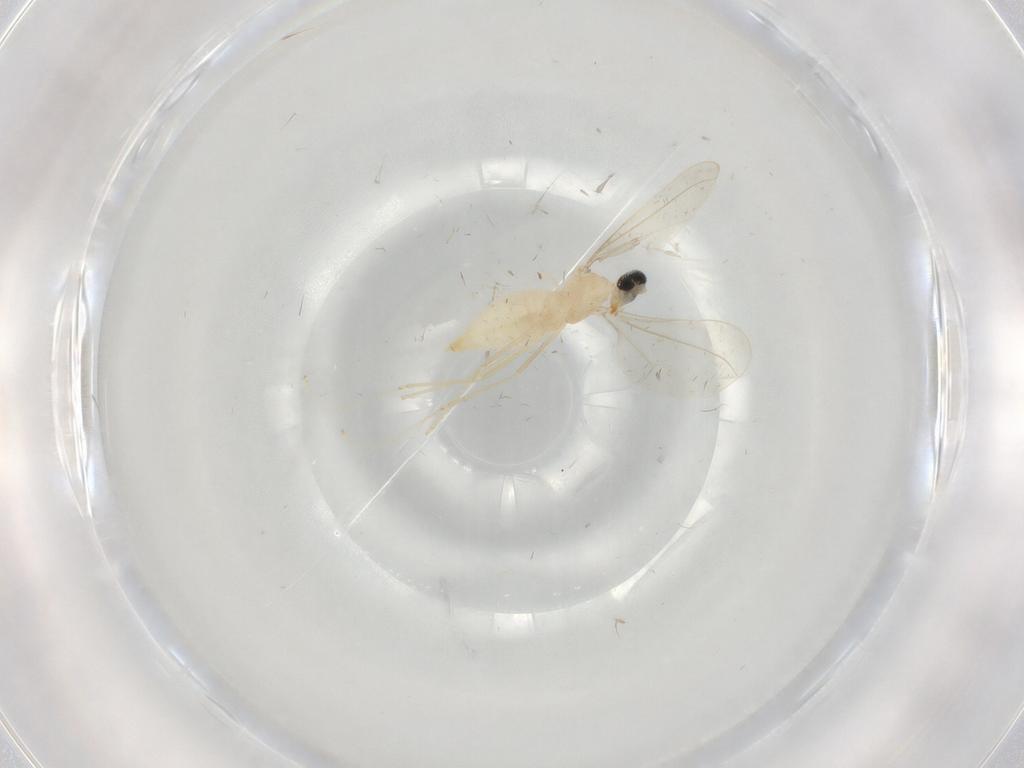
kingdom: Animalia
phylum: Arthropoda
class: Insecta
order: Diptera
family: Cecidomyiidae
